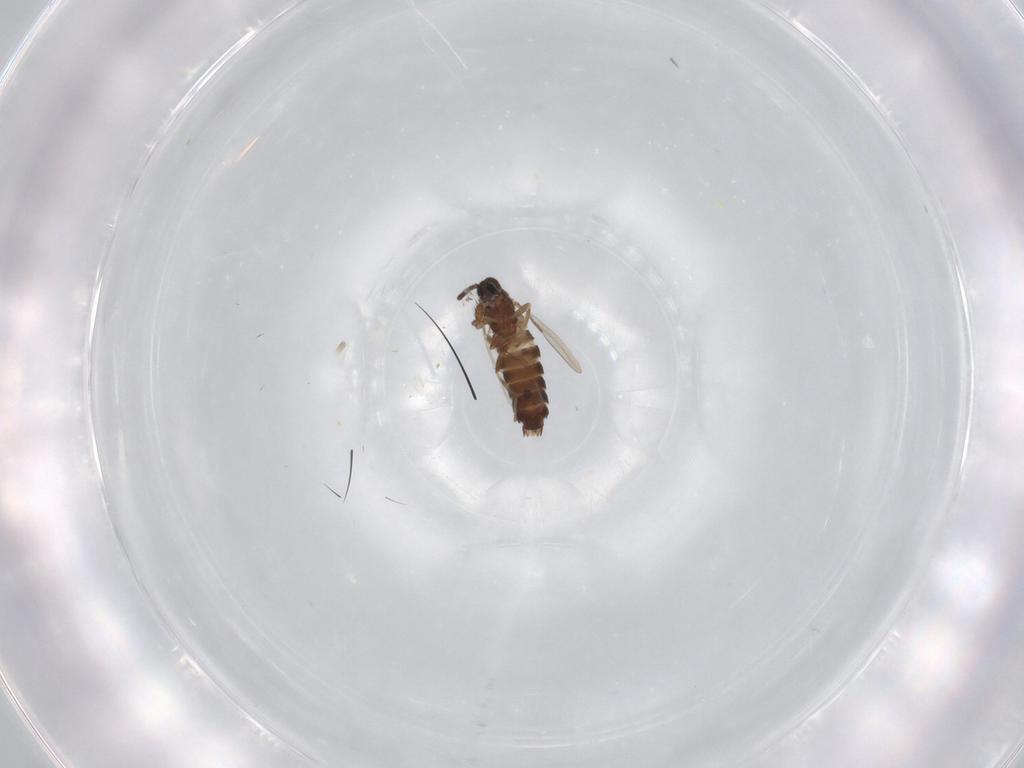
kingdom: Animalia
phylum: Arthropoda
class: Insecta
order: Diptera
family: Scatopsidae
